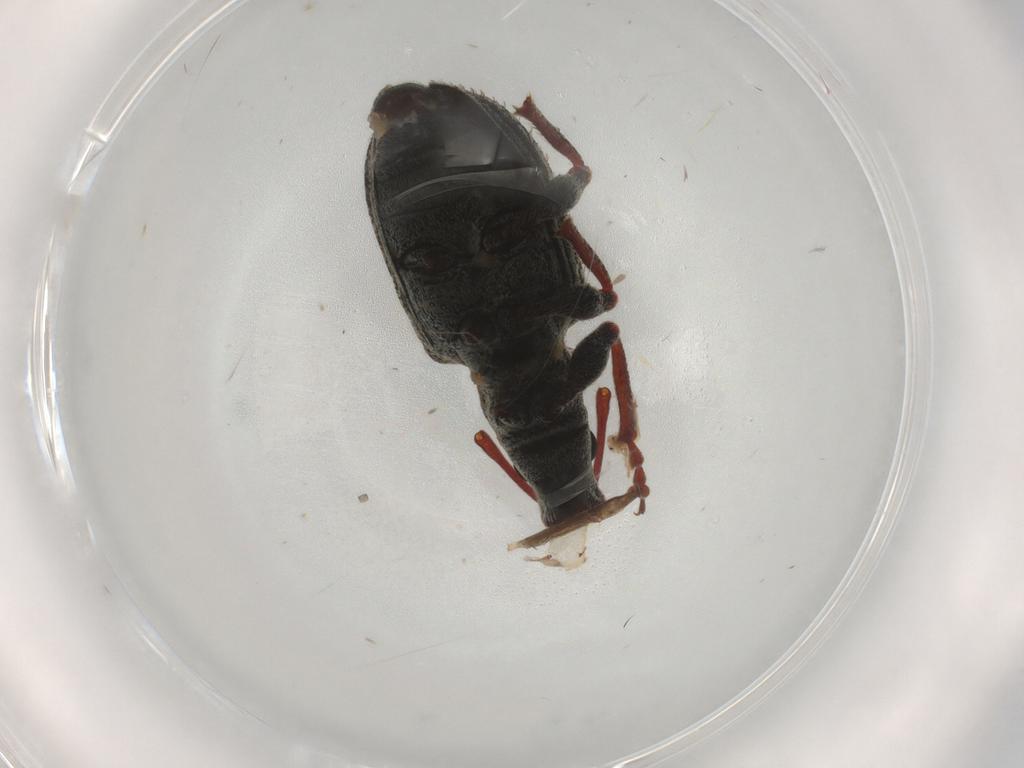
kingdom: Animalia
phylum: Arthropoda
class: Insecta
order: Coleoptera
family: Curculionidae
